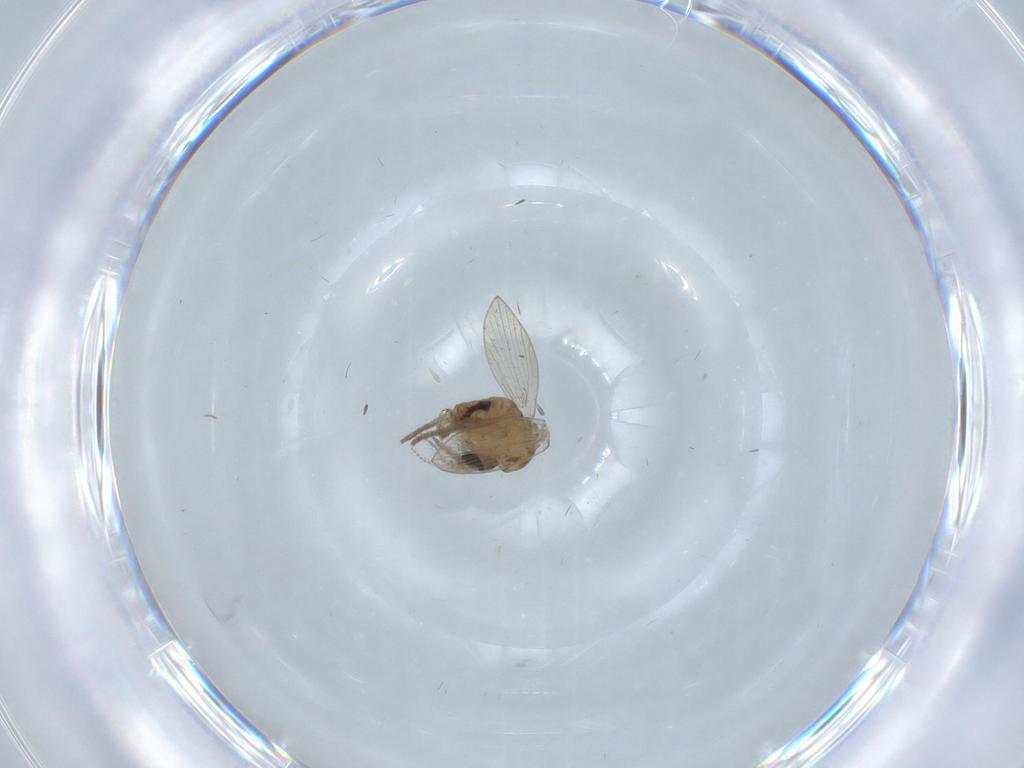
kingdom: Animalia
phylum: Arthropoda
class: Insecta
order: Diptera
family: Psychodidae
